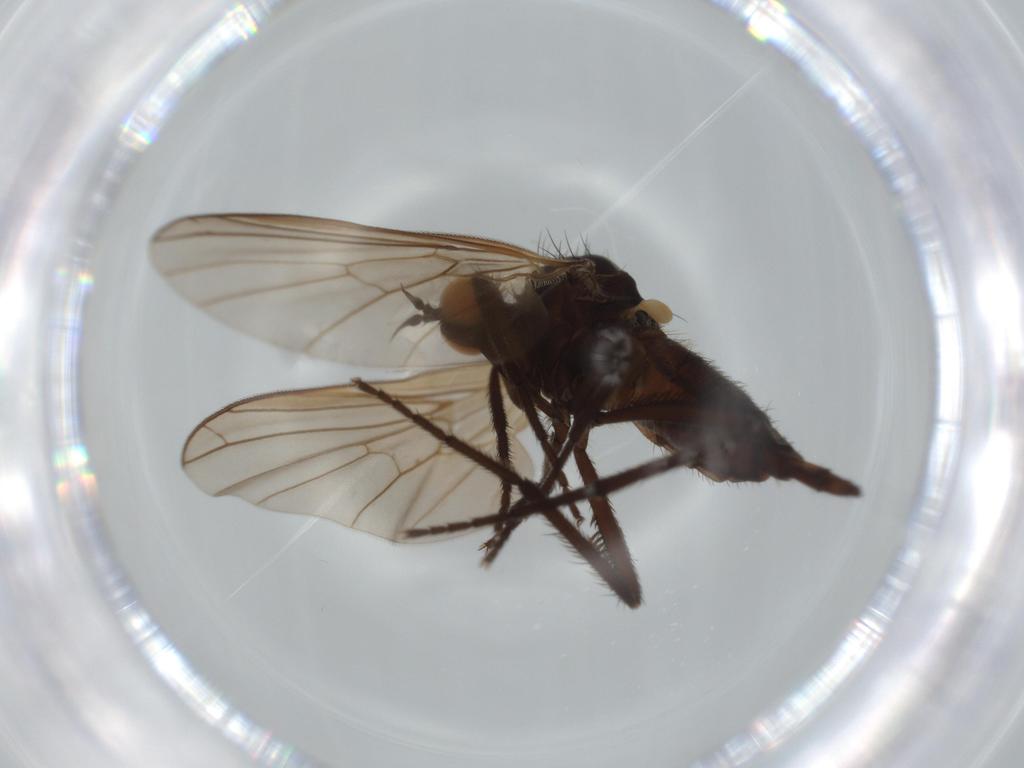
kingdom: Animalia
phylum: Arthropoda
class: Insecta
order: Diptera
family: Empididae
